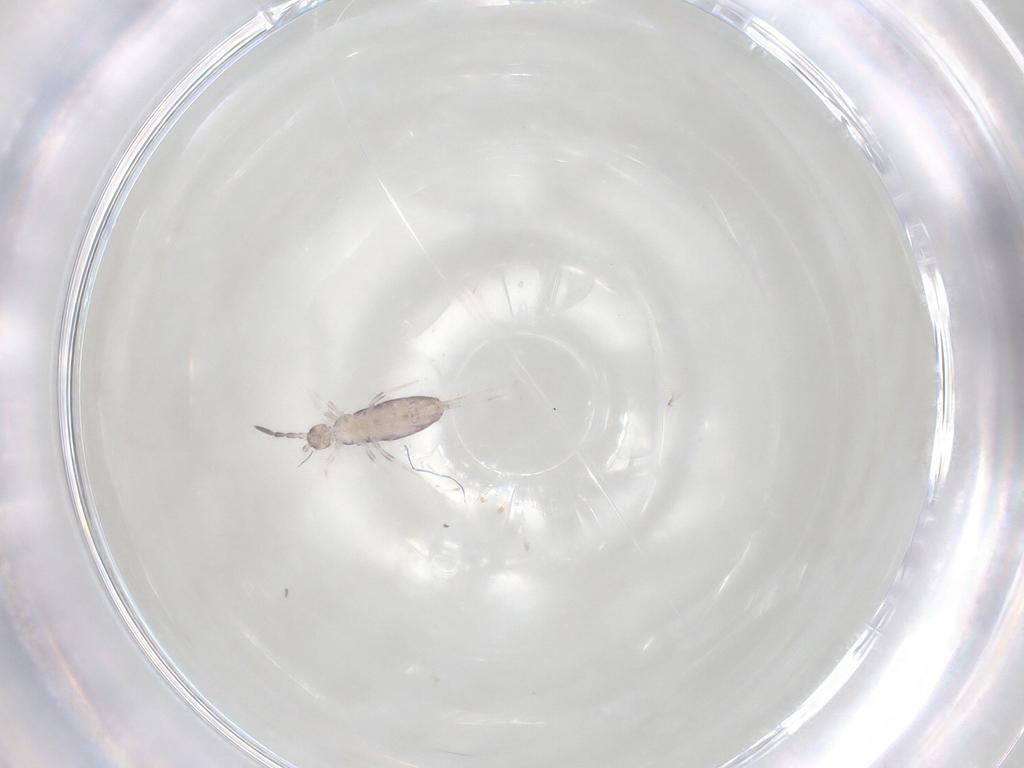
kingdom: Animalia
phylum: Arthropoda
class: Collembola
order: Poduromorpha
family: Hypogastruridae
